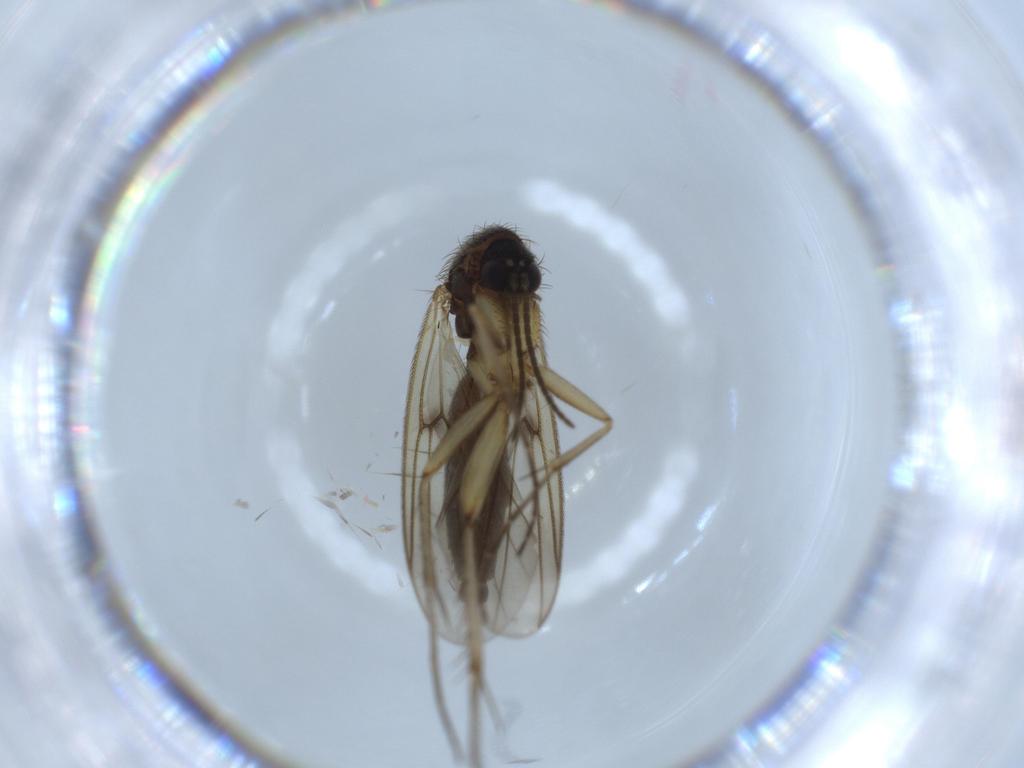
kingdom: Animalia
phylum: Arthropoda
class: Insecta
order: Diptera
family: Mycetophilidae
